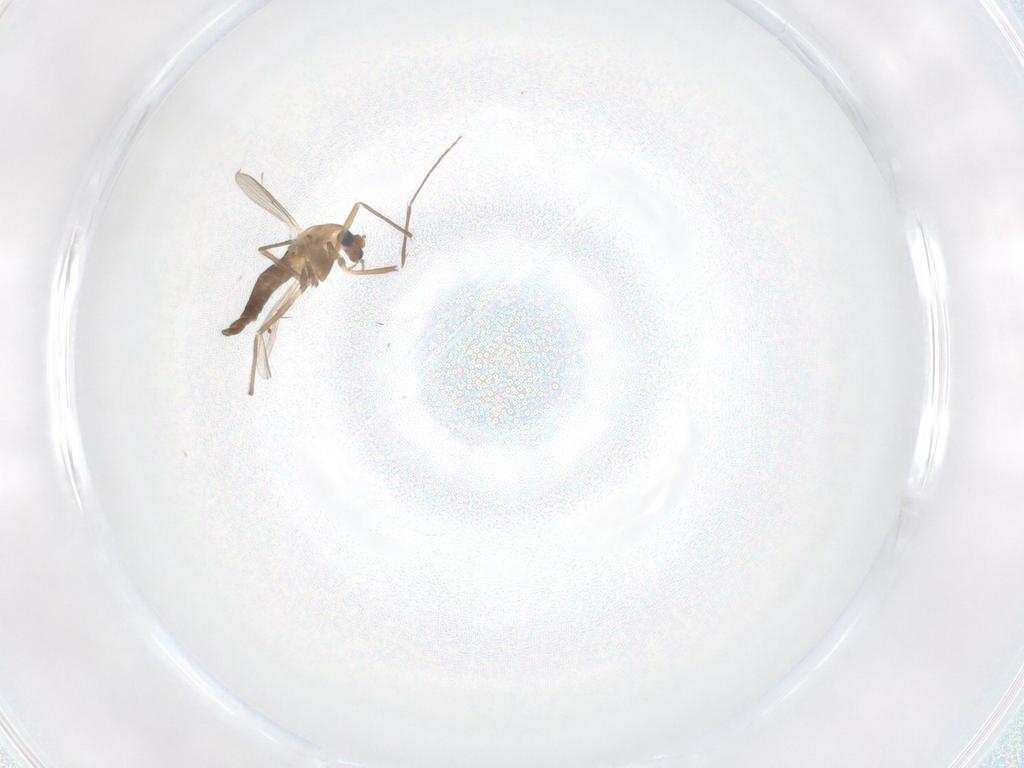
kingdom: Animalia
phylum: Arthropoda
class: Insecta
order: Diptera
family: Chironomidae
